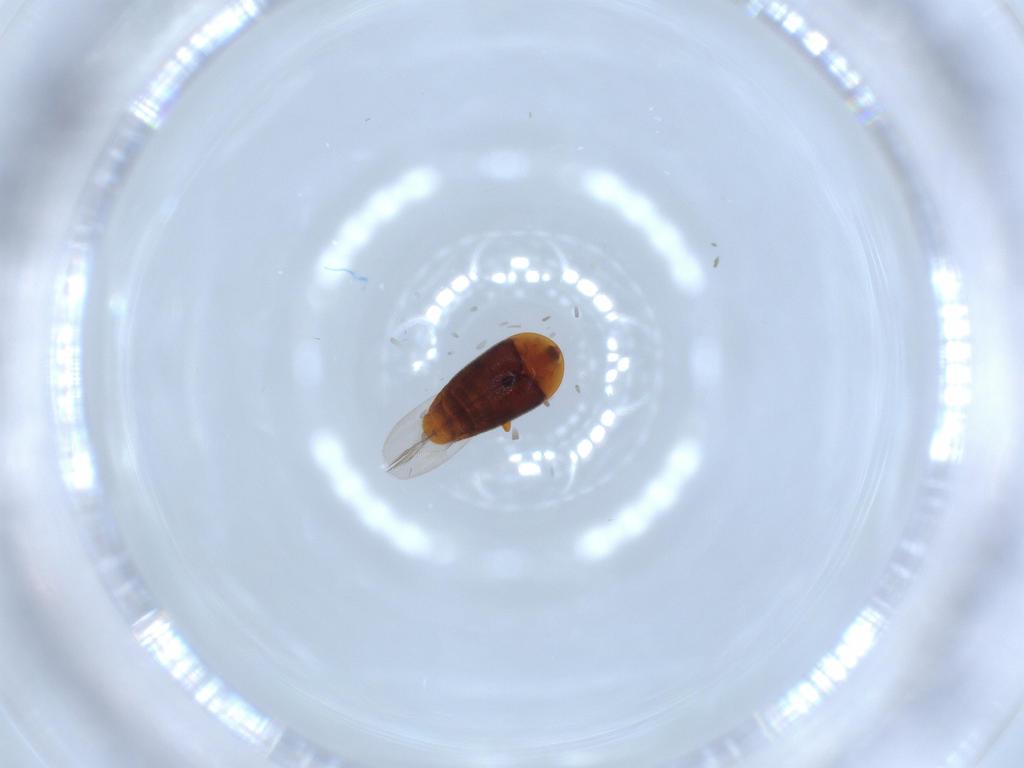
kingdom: Animalia
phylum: Arthropoda
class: Insecta
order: Coleoptera
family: Corylophidae
